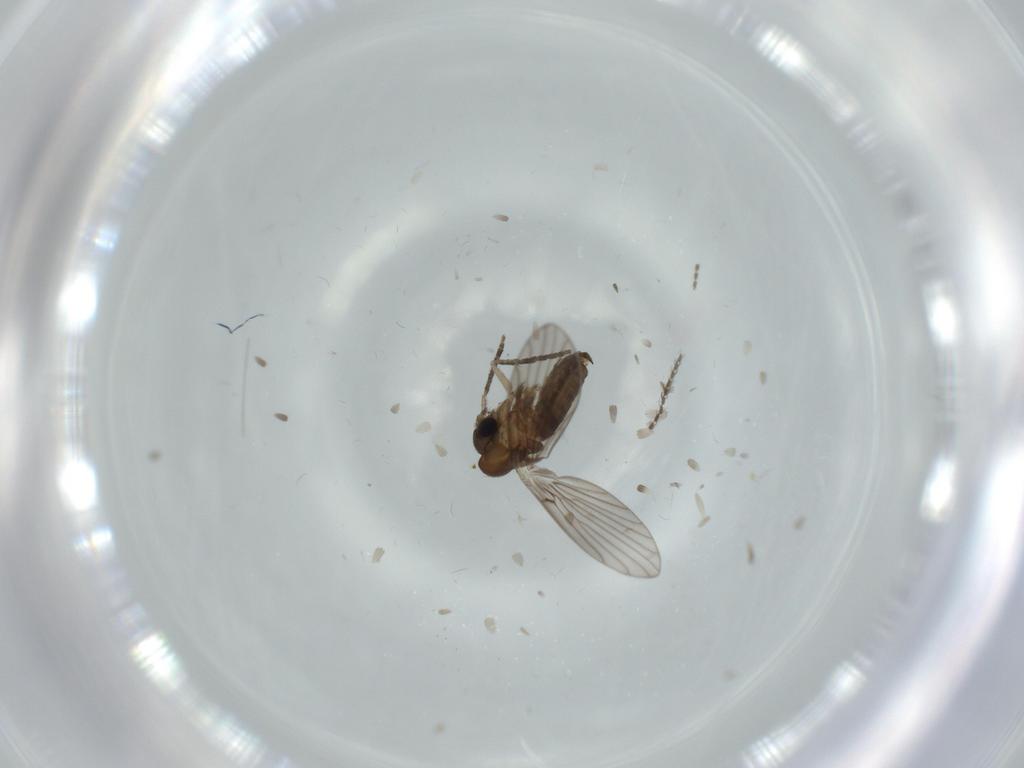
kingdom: Animalia
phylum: Arthropoda
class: Insecta
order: Diptera
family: Psychodidae
